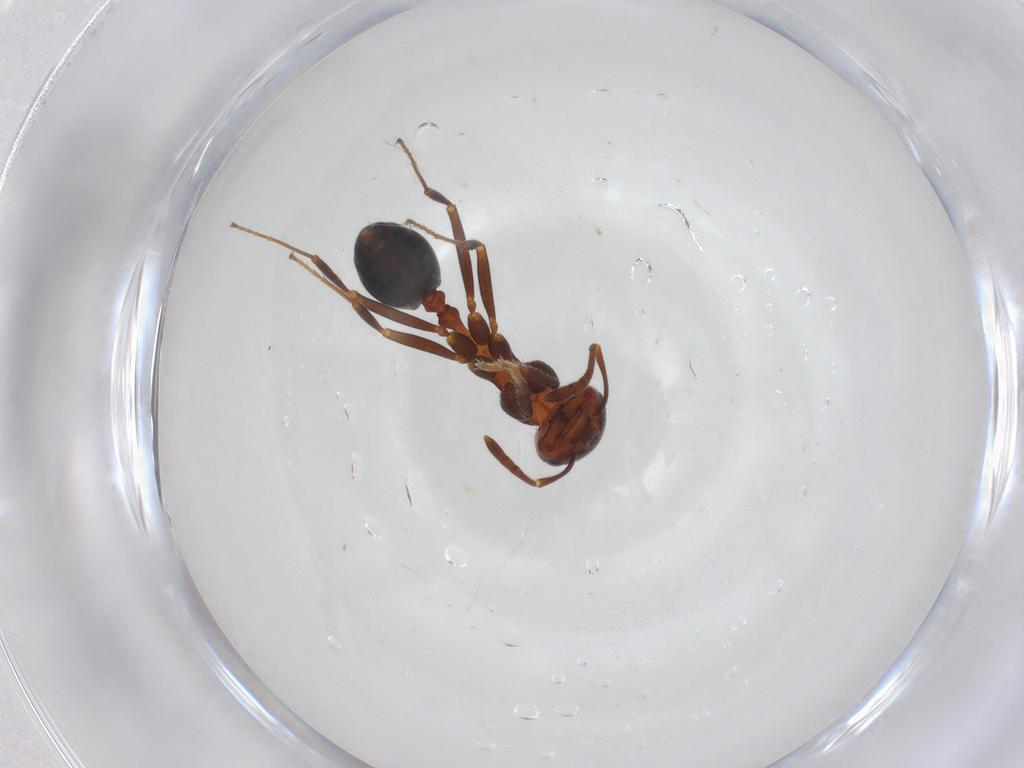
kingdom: Animalia
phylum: Arthropoda
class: Insecta
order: Hymenoptera
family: Formicidae
